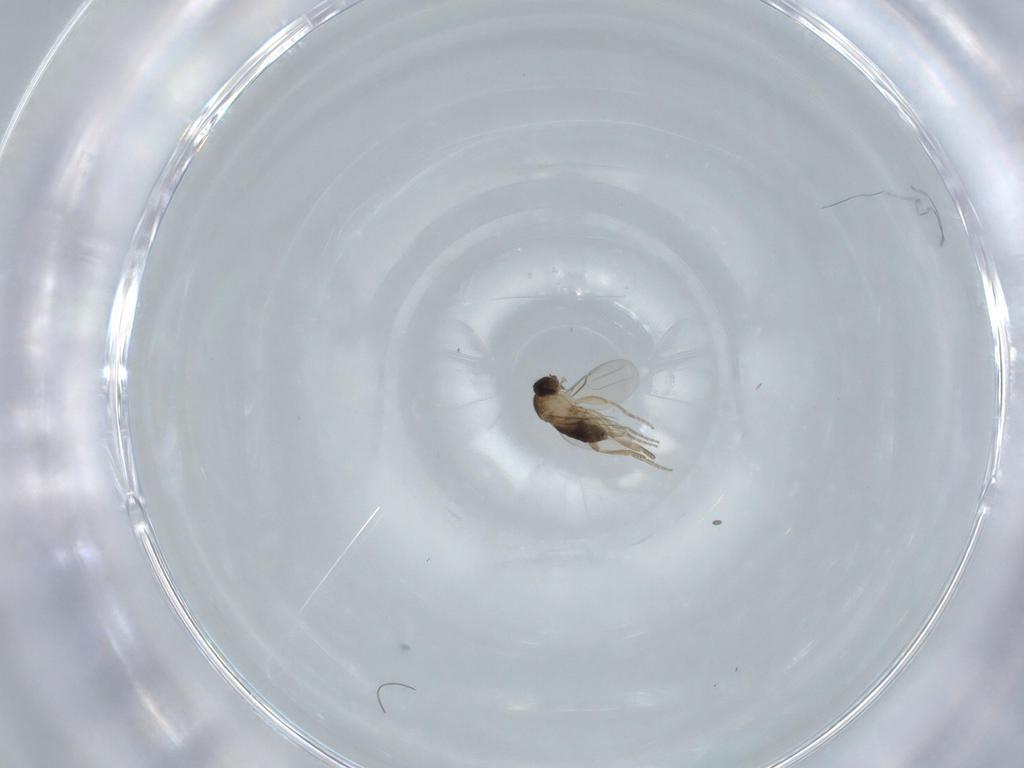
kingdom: Animalia
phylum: Arthropoda
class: Insecta
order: Diptera
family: Phoridae
